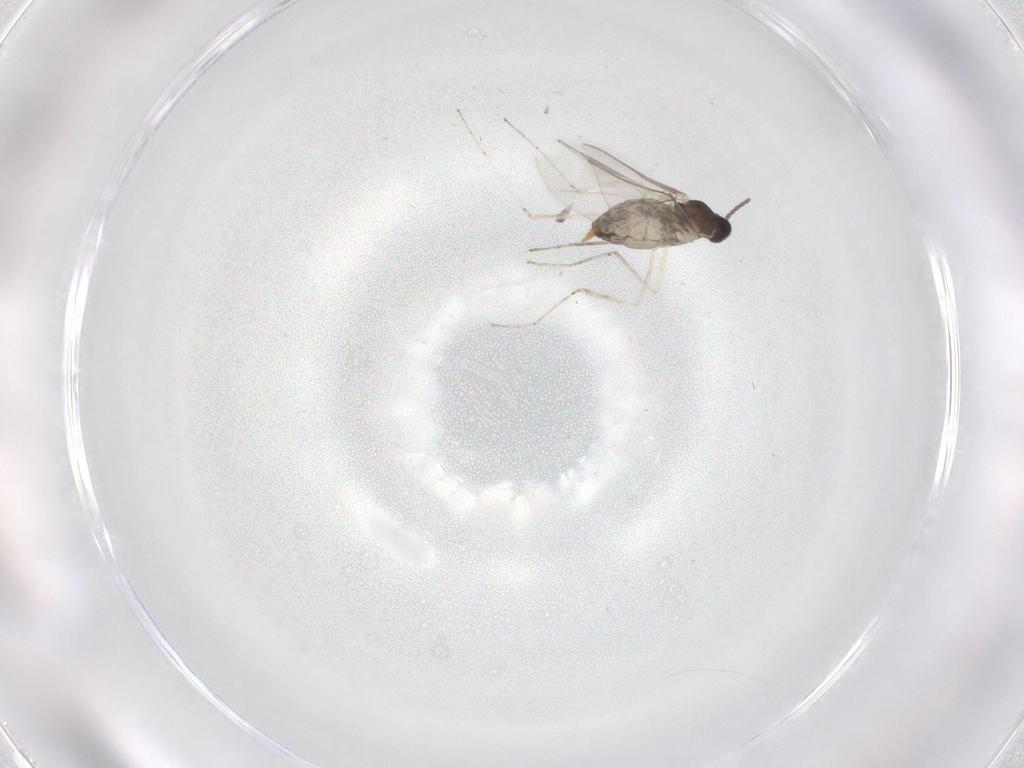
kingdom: Animalia
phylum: Arthropoda
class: Insecta
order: Diptera
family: Cecidomyiidae
